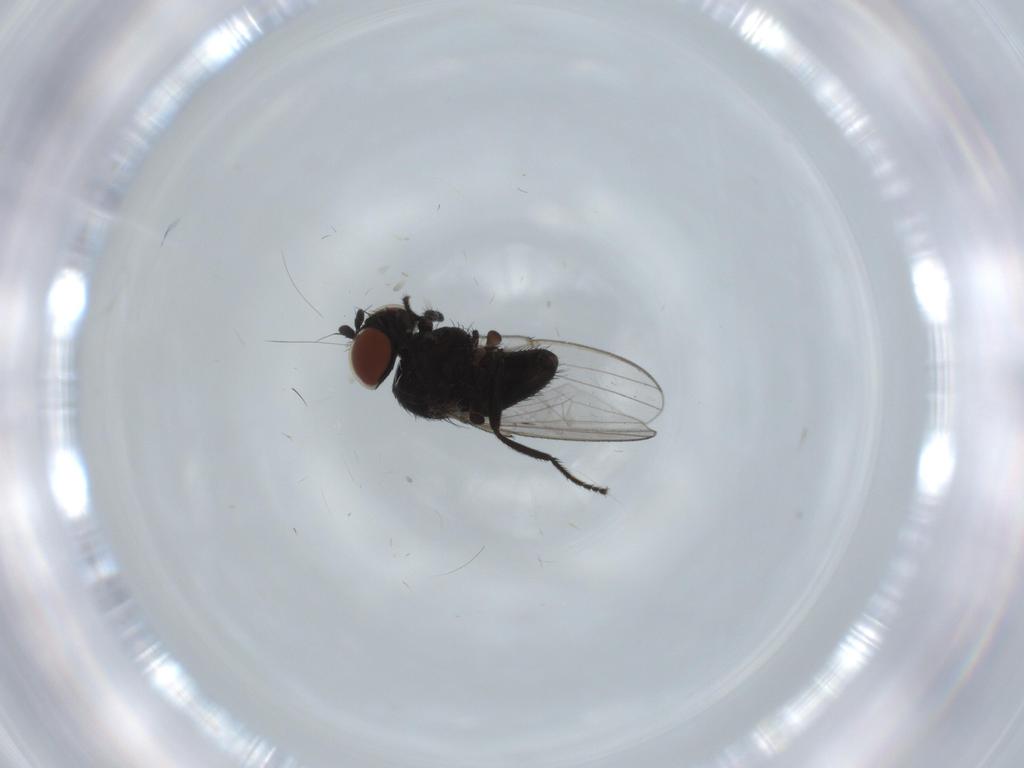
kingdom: Animalia
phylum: Arthropoda
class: Insecta
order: Diptera
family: Milichiidae
